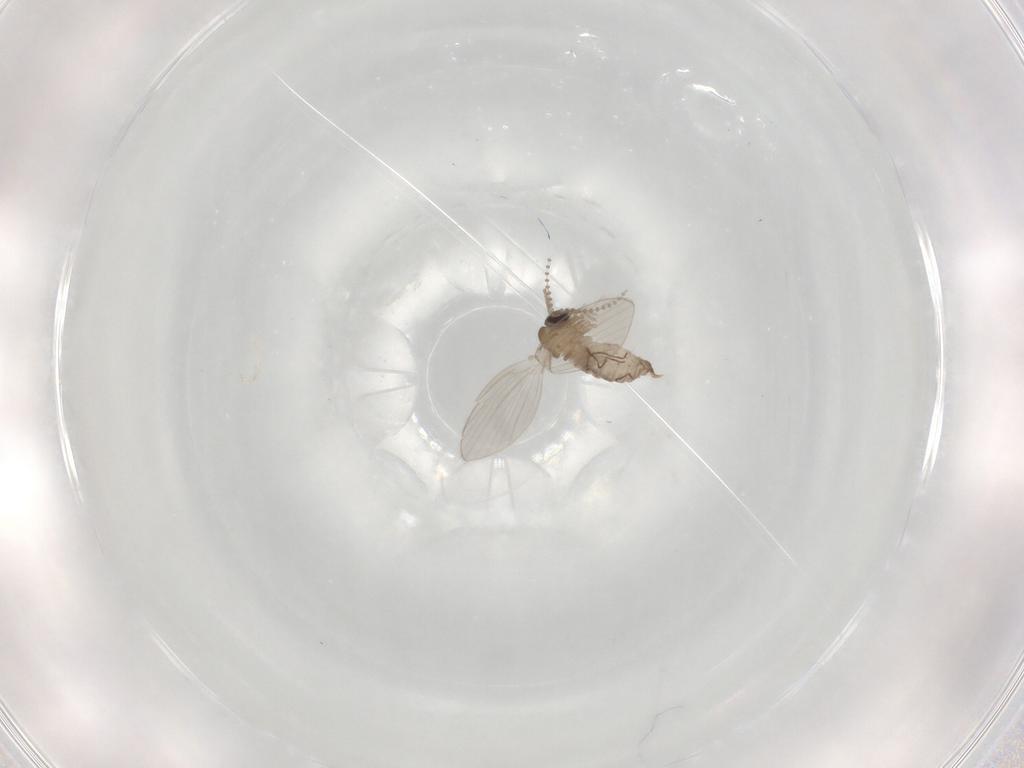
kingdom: Animalia
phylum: Arthropoda
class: Insecta
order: Diptera
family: Psychodidae
